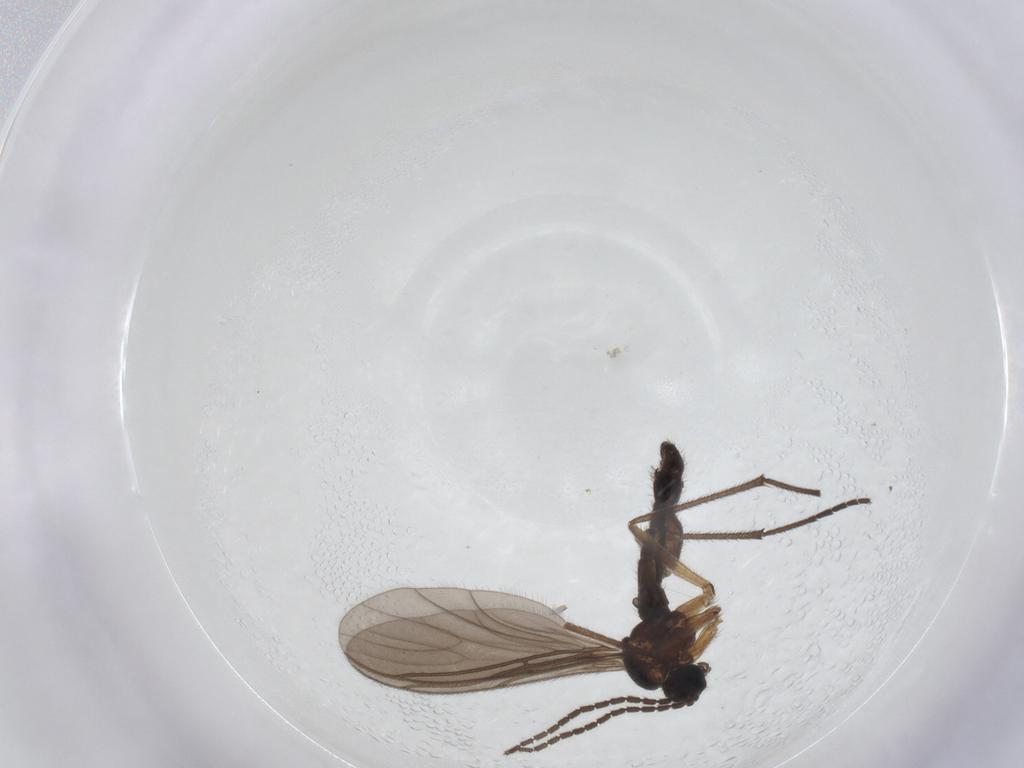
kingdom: Animalia
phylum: Arthropoda
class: Insecta
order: Diptera
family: Sciaridae
